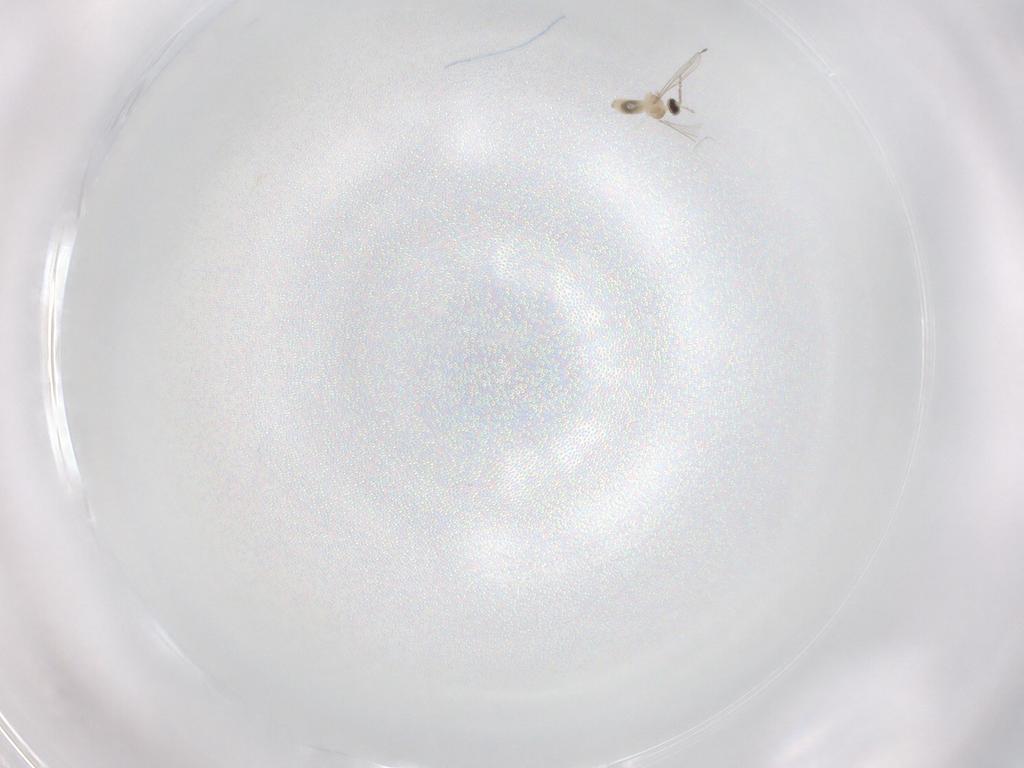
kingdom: Animalia
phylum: Arthropoda
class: Insecta
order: Diptera
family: Cecidomyiidae
